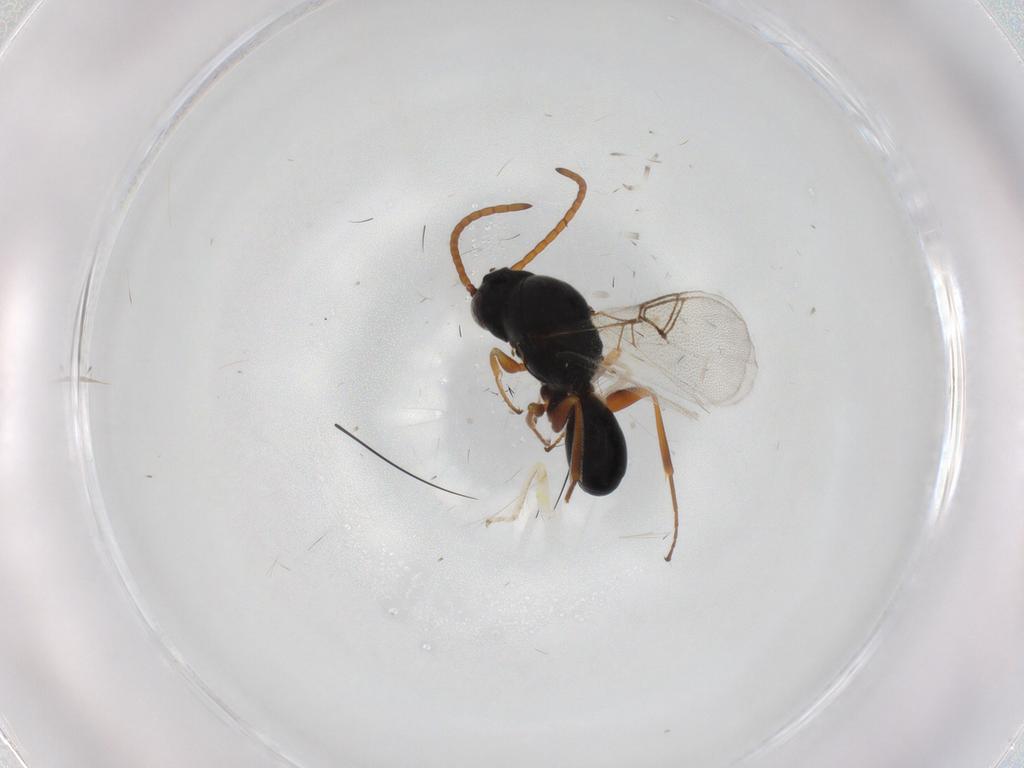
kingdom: Animalia
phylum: Arthropoda
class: Insecta
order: Hymenoptera
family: Figitidae
